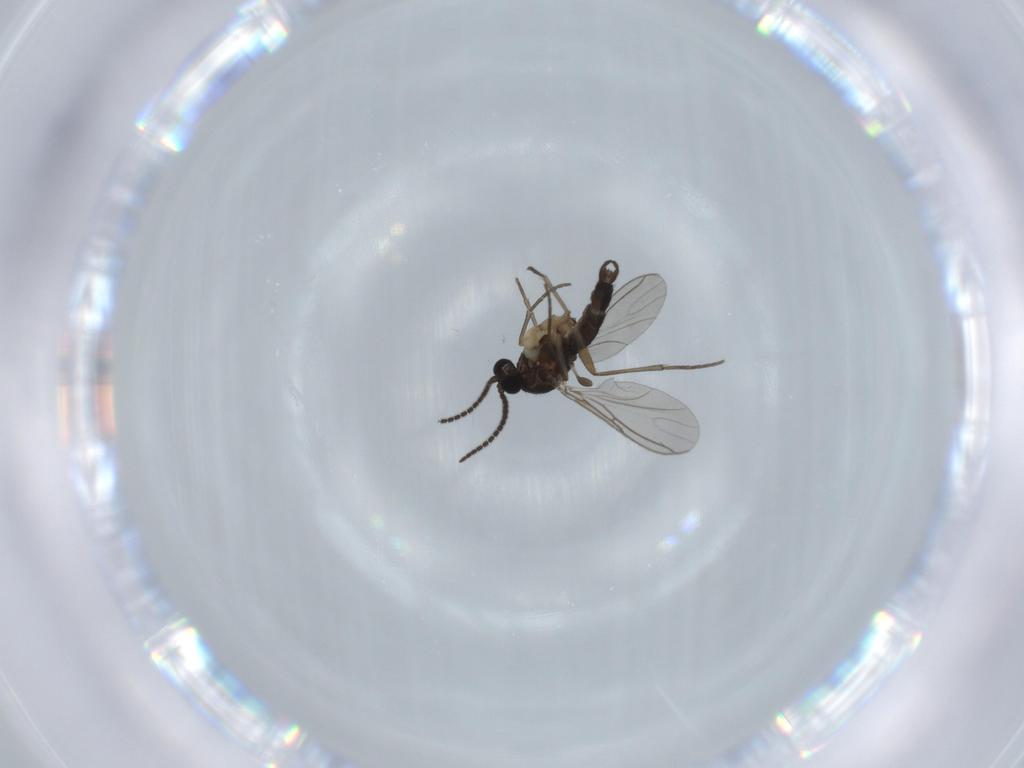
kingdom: Animalia
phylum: Arthropoda
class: Insecta
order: Diptera
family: Sciaridae
